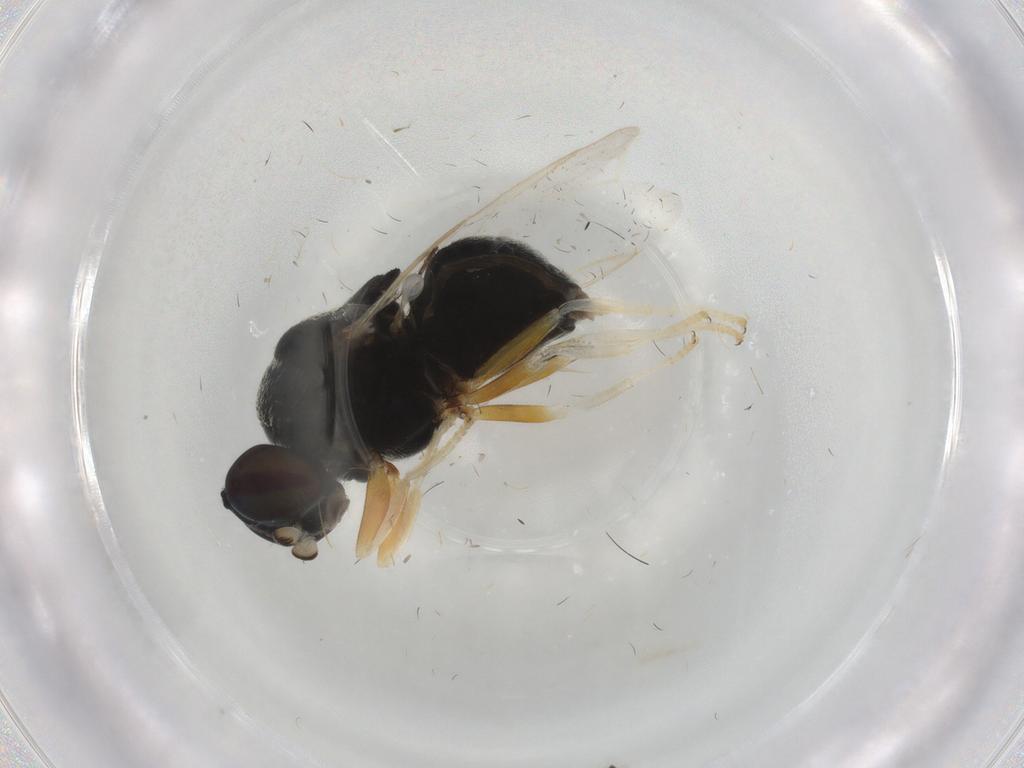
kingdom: Animalia
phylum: Arthropoda
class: Insecta
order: Diptera
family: Stratiomyidae
